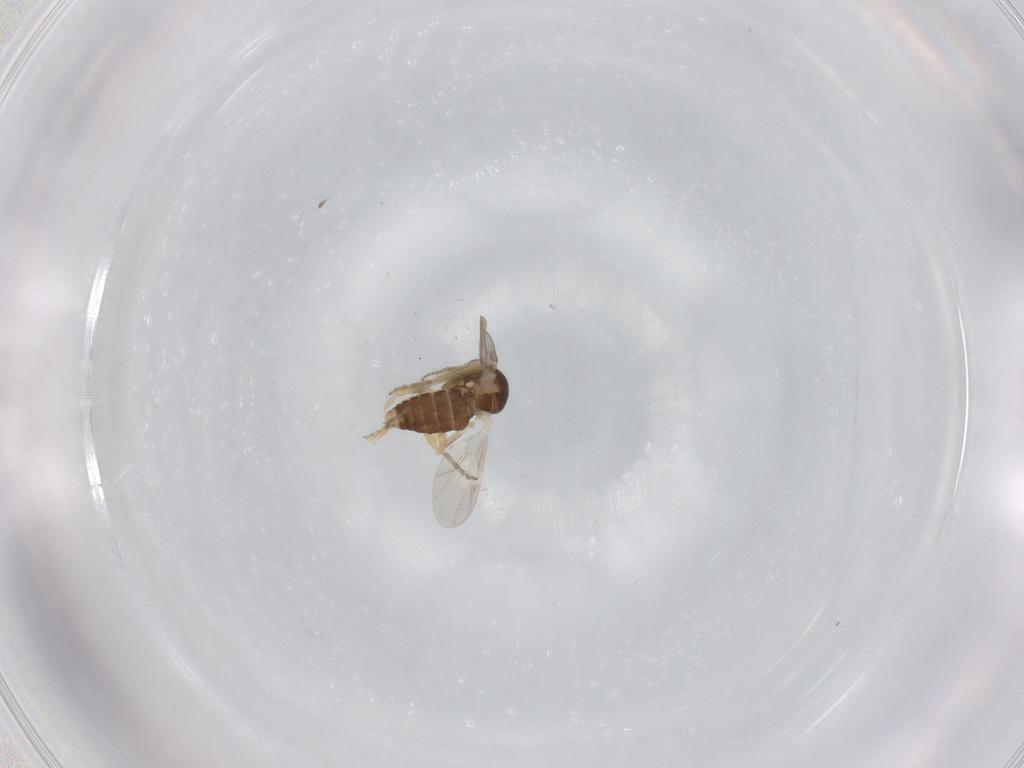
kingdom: Animalia
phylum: Arthropoda
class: Insecta
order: Diptera
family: Ceratopogonidae
